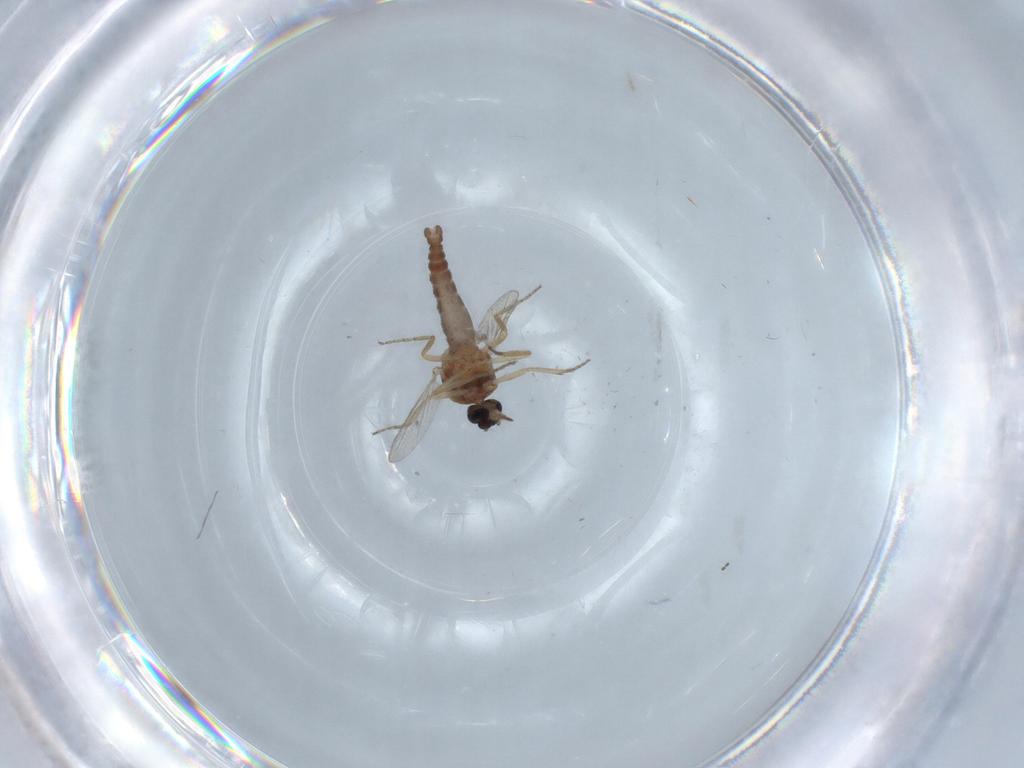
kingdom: Animalia
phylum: Arthropoda
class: Insecta
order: Diptera
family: Ceratopogonidae
